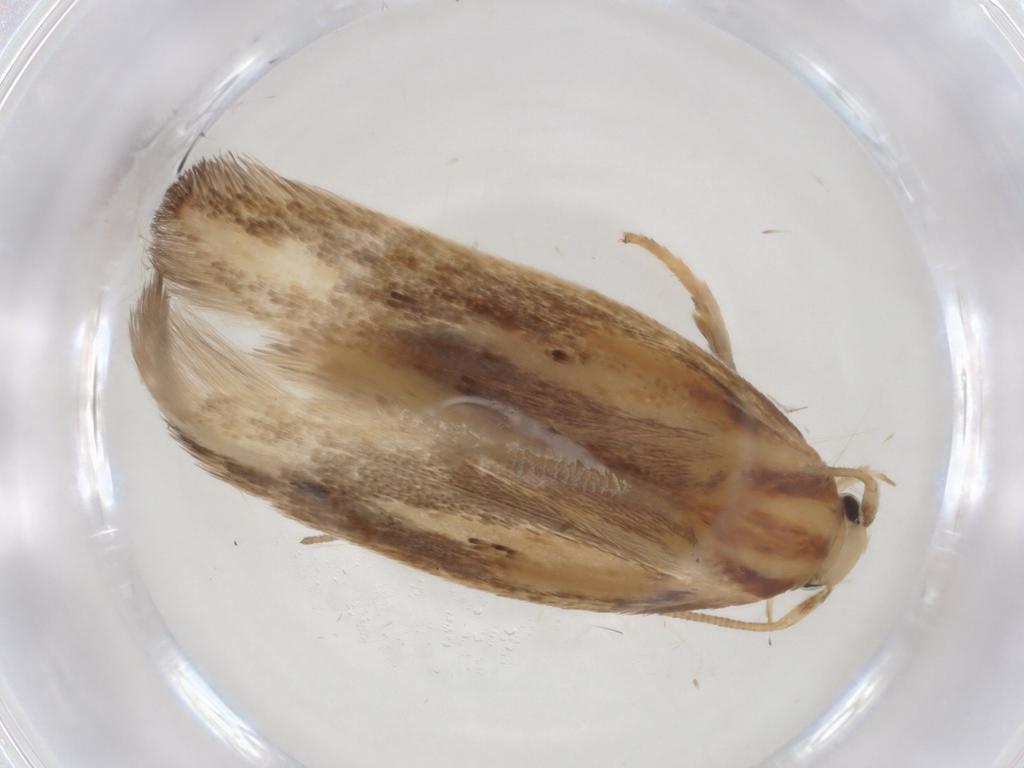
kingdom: Animalia
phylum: Arthropoda
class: Insecta
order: Lepidoptera
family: Geometridae
